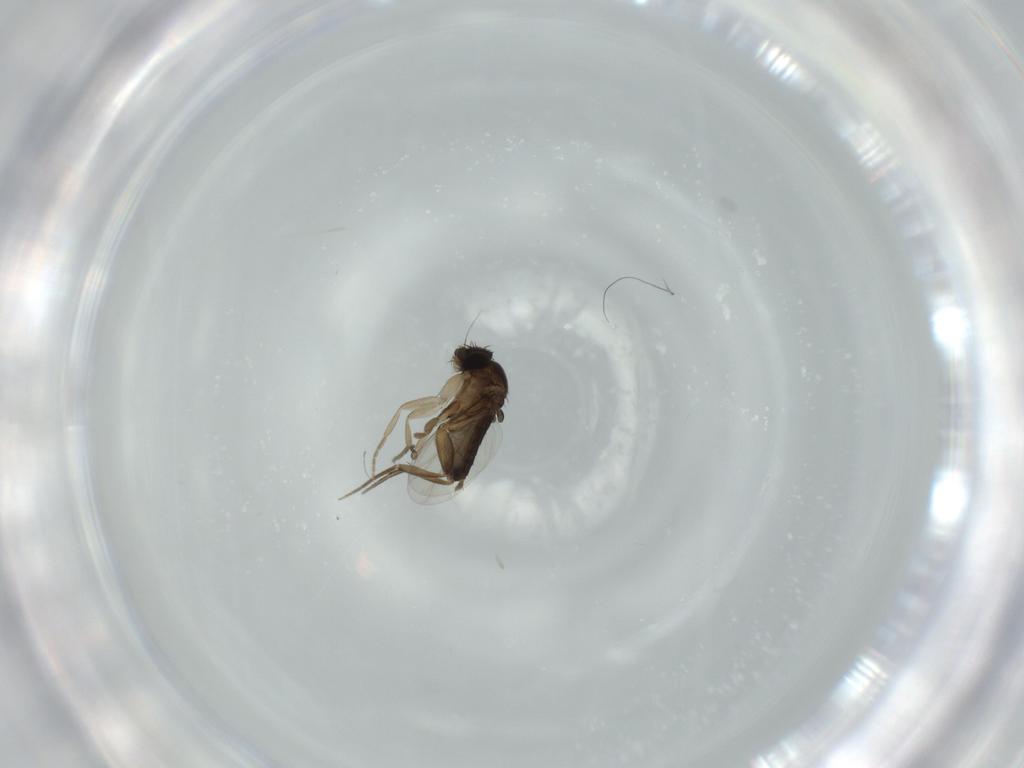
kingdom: Animalia
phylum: Arthropoda
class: Insecta
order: Diptera
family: Phoridae
